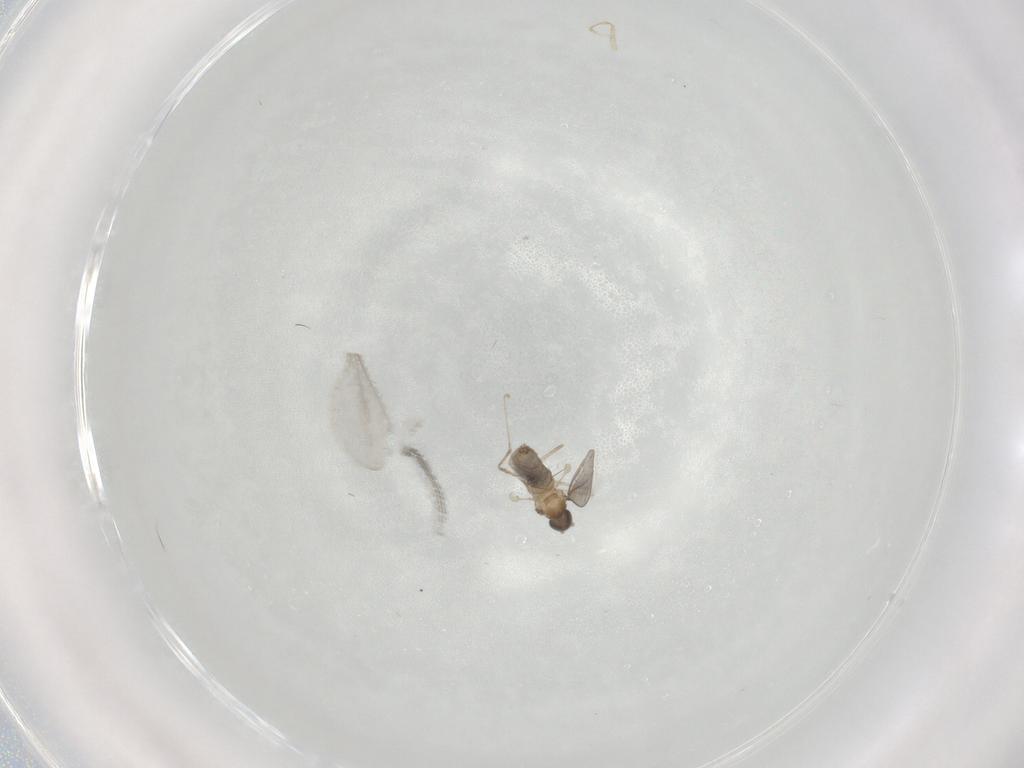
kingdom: Animalia
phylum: Arthropoda
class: Insecta
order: Diptera
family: Cecidomyiidae
